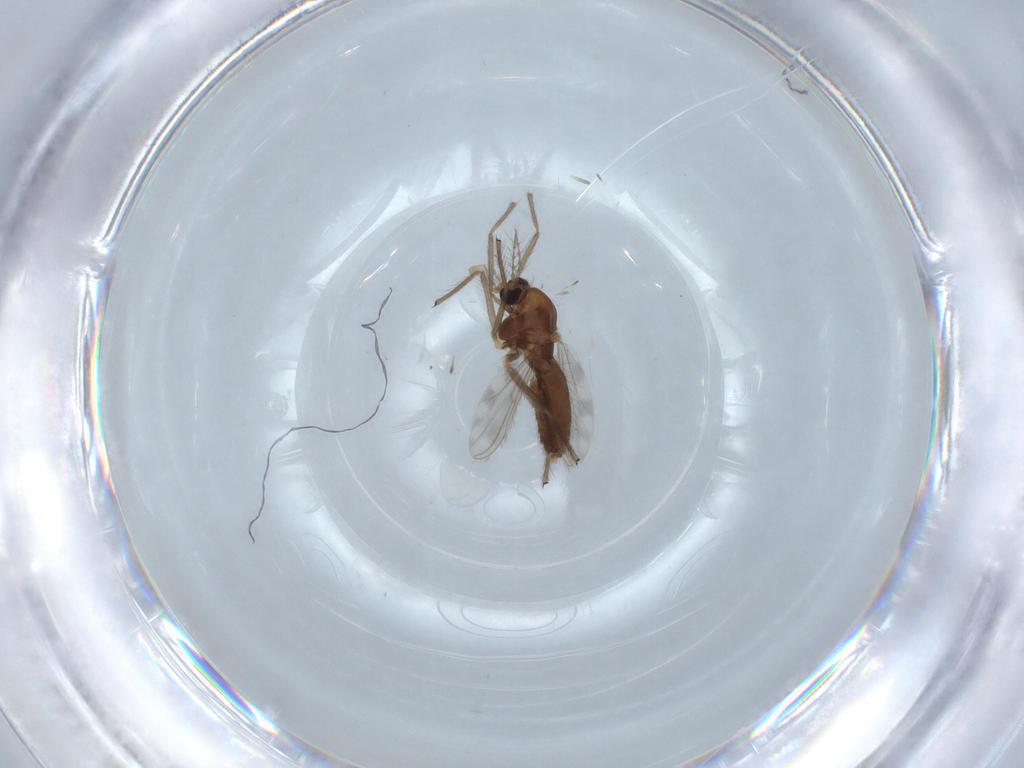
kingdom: Animalia
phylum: Arthropoda
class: Insecta
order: Diptera
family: Chironomidae
